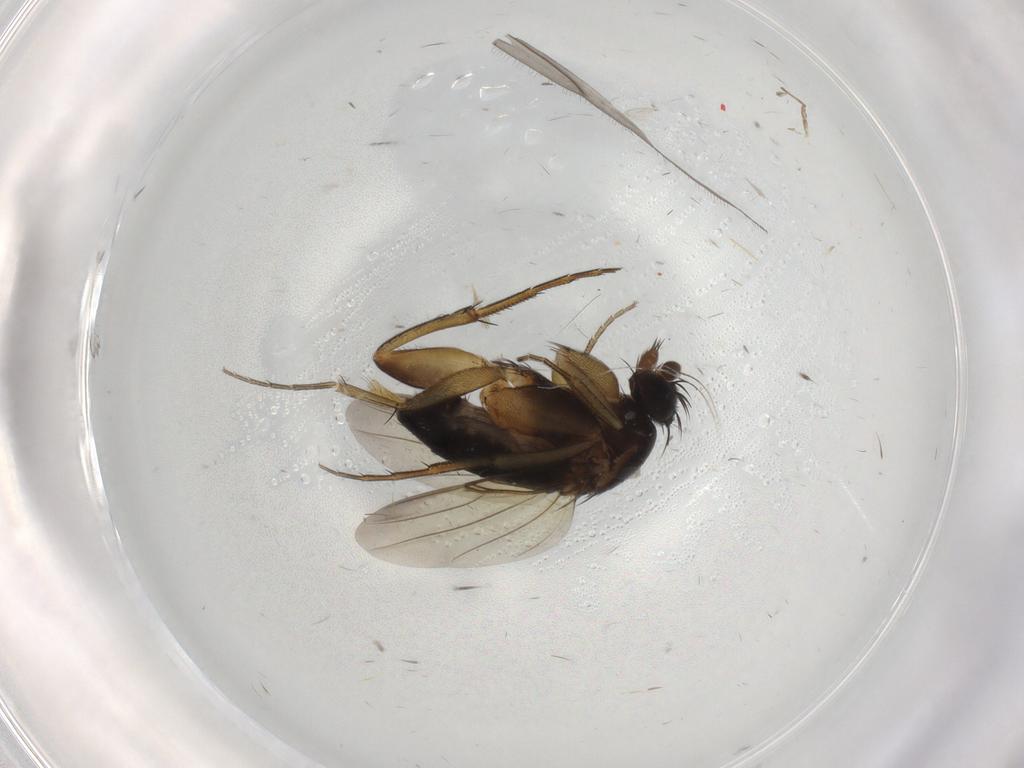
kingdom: Animalia
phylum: Arthropoda
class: Insecta
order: Diptera
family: Phoridae
